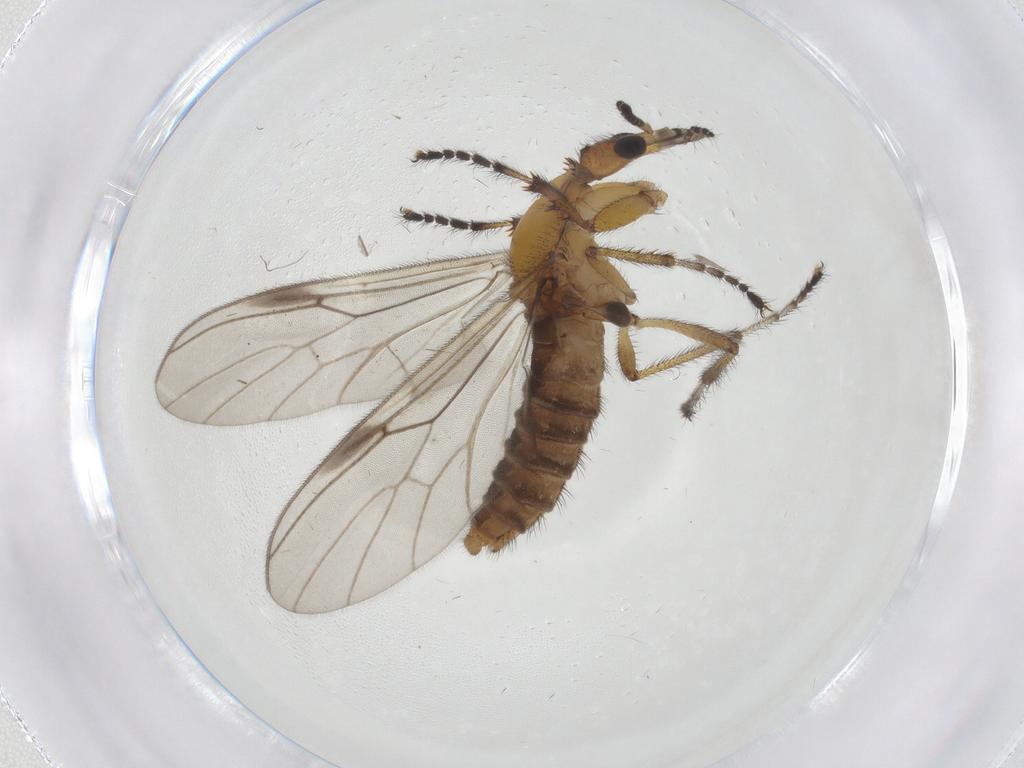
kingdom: Animalia
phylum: Arthropoda
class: Insecta
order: Diptera
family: Bibionidae
